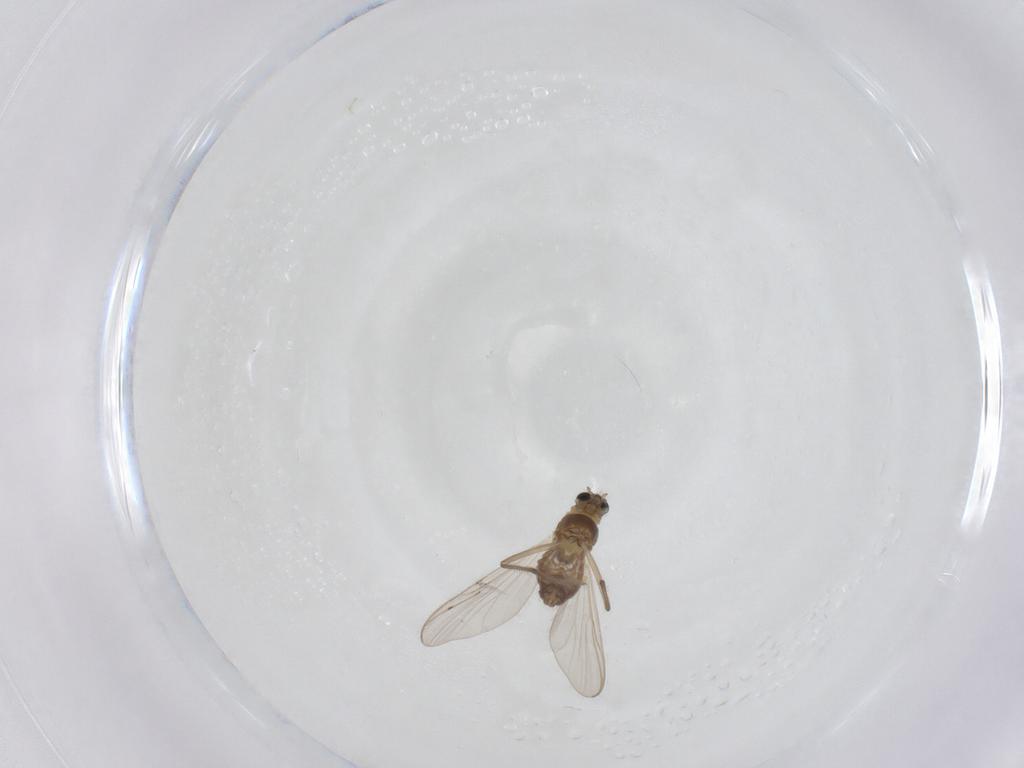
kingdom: Animalia
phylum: Arthropoda
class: Insecta
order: Diptera
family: Chironomidae
